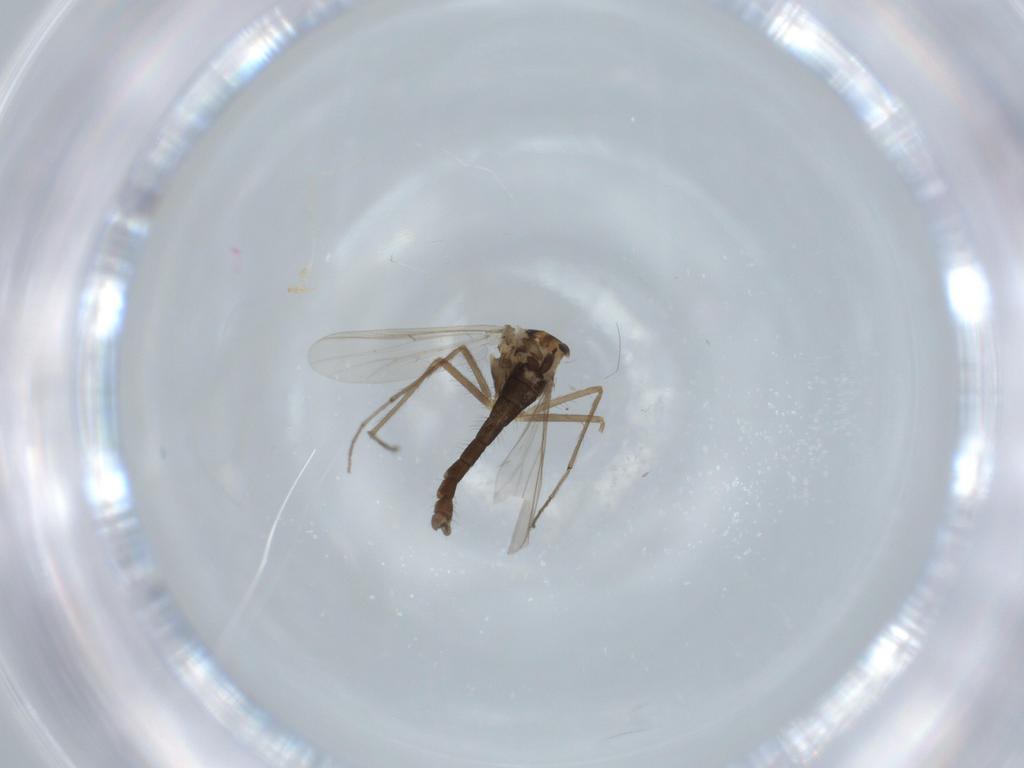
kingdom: Animalia
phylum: Arthropoda
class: Insecta
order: Diptera
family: Chironomidae
